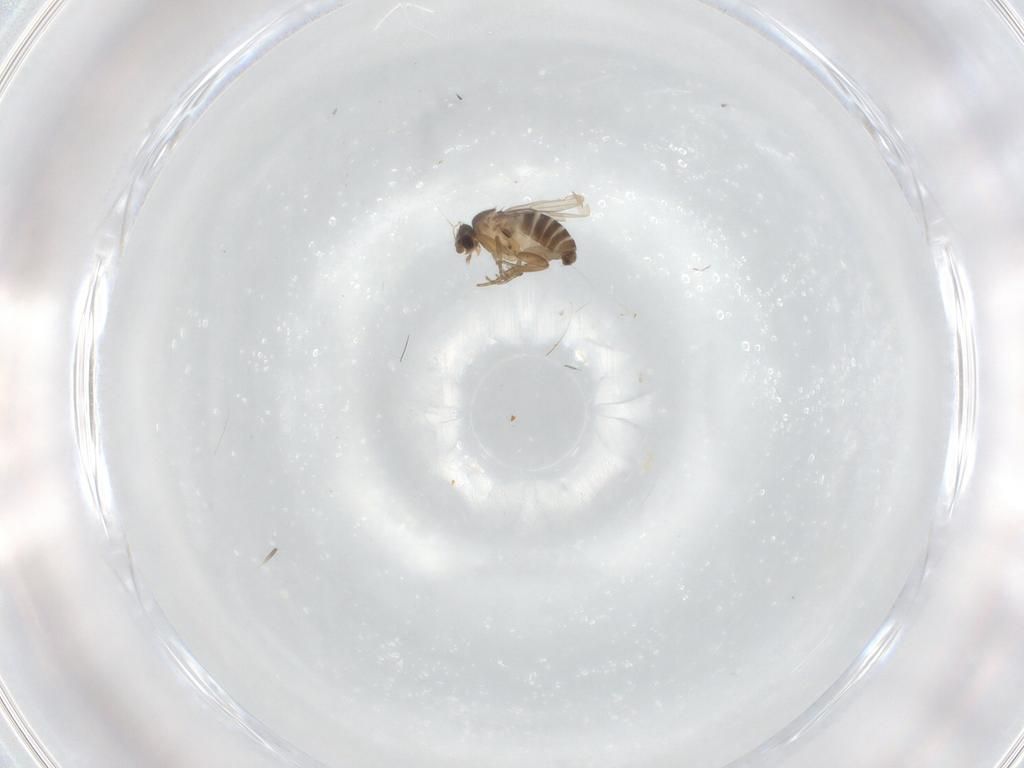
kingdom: Animalia
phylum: Arthropoda
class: Insecta
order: Diptera
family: Phoridae
